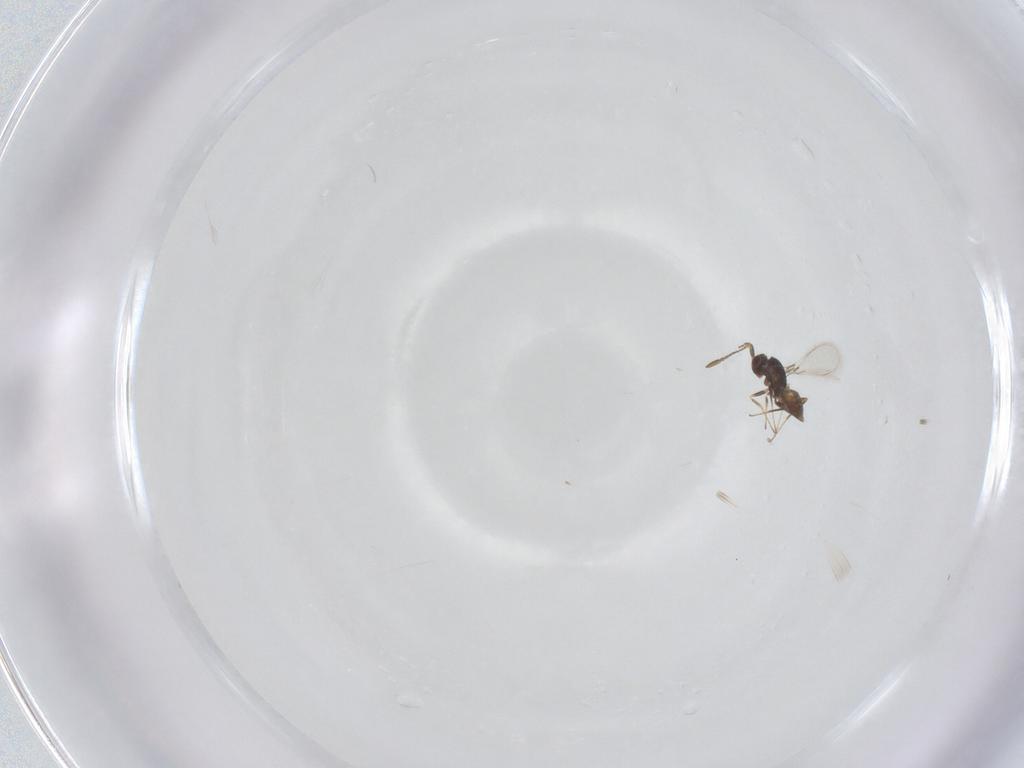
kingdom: Animalia
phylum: Arthropoda
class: Insecta
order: Hymenoptera
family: Mymaridae
